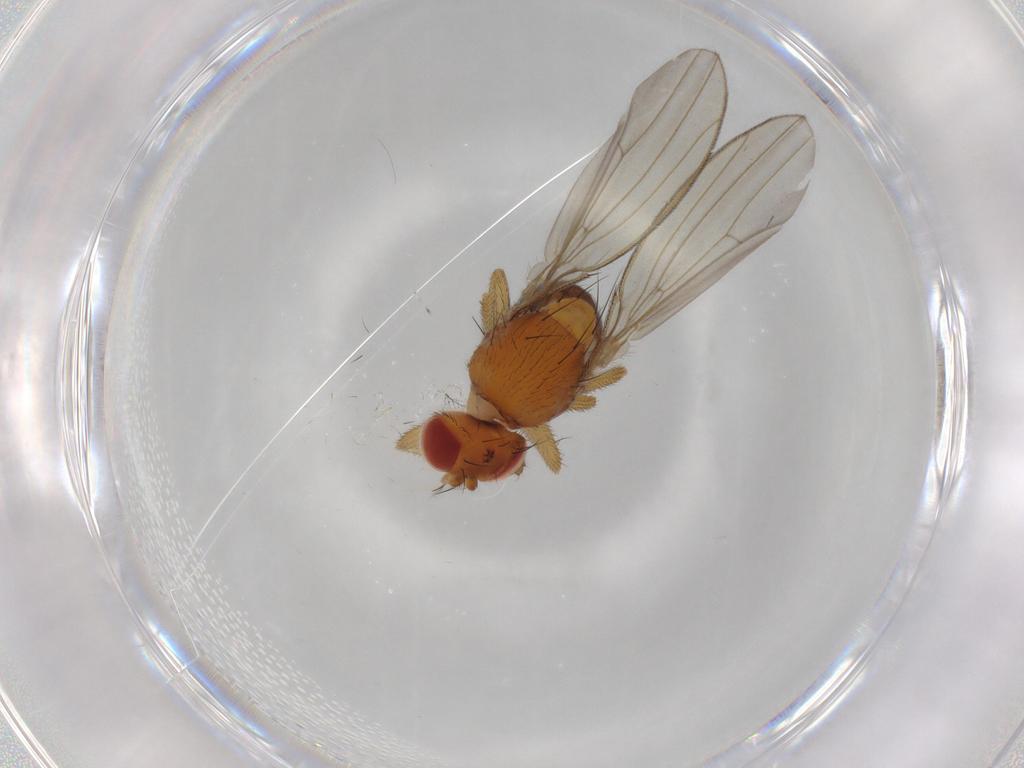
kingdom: Animalia
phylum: Arthropoda
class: Insecta
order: Diptera
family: Drosophilidae
